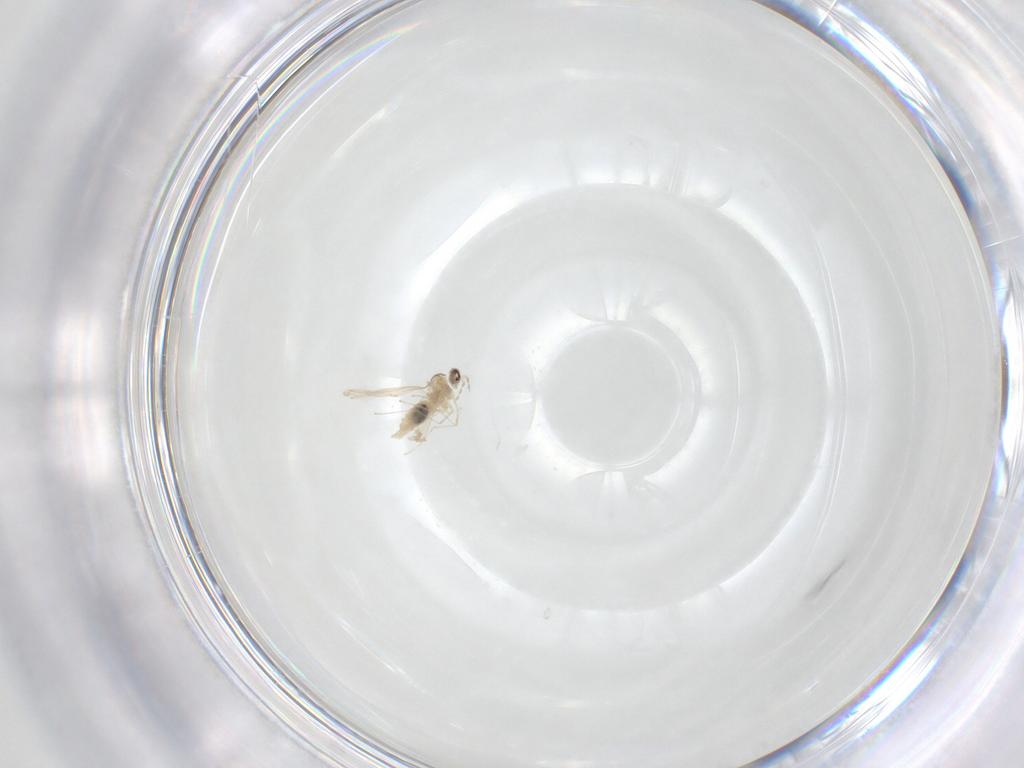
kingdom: Animalia
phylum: Arthropoda
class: Insecta
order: Diptera
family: Cecidomyiidae
